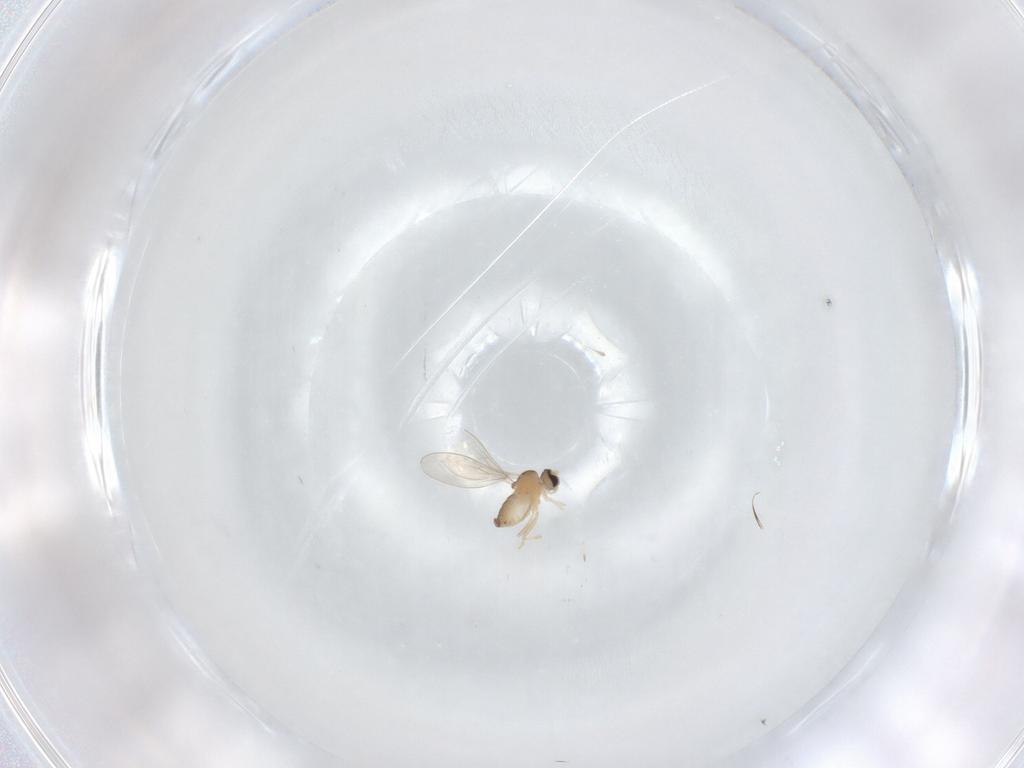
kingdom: Animalia
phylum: Arthropoda
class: Insecta
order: Diptera
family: Cecidomyiidae
